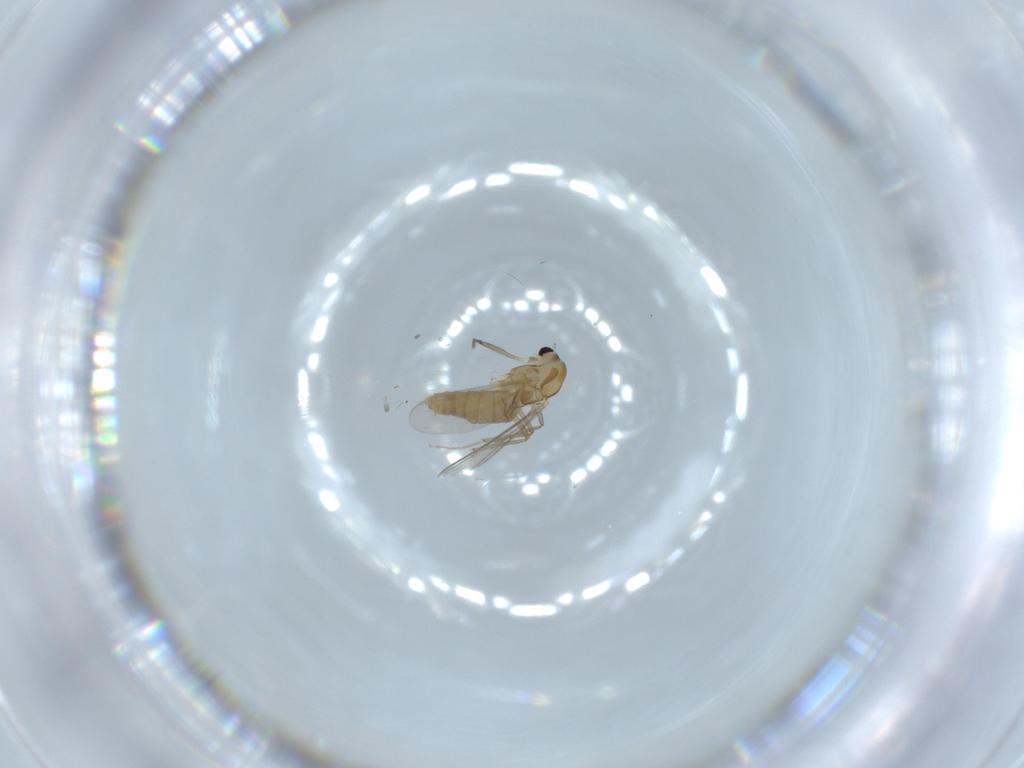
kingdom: Animalia
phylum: Arthropoda
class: Insecta
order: Diptera
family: Chironomidae
